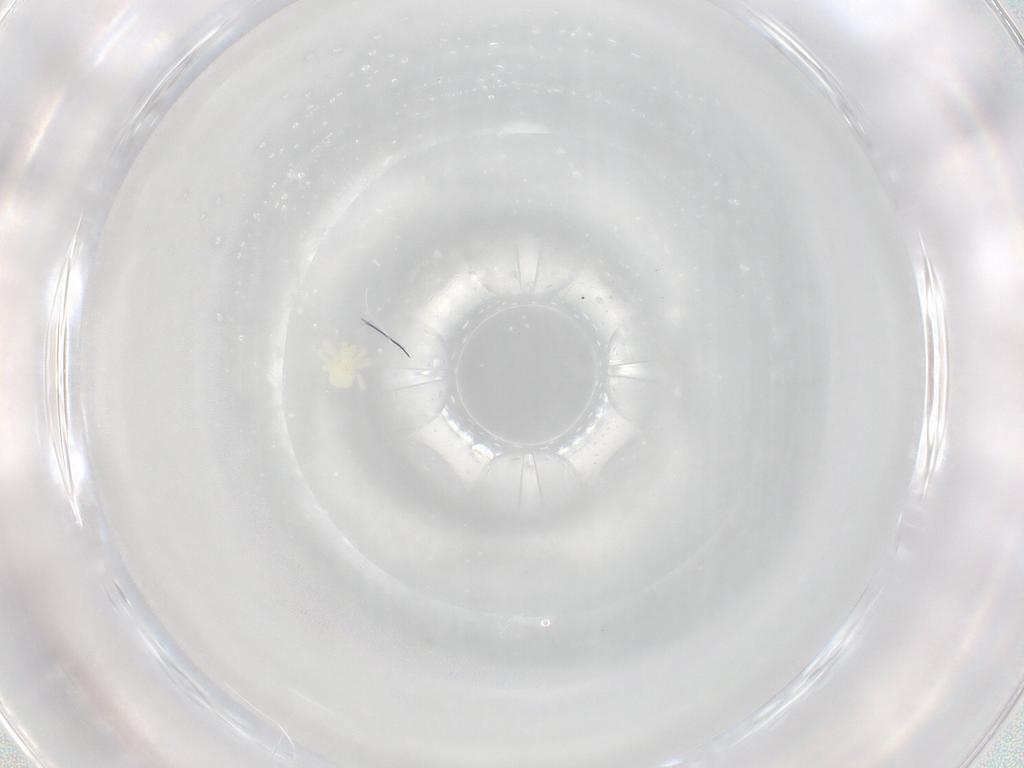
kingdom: Animalia
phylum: Arthropoda
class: Arachnida
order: Trombidiformes
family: Anystidae
